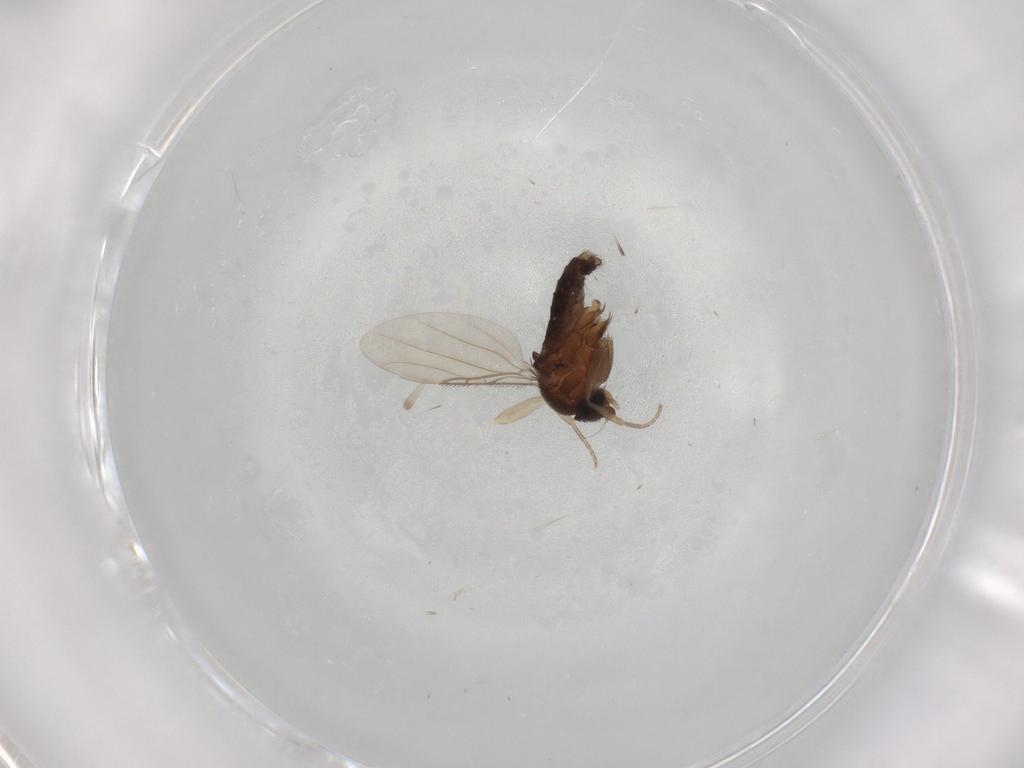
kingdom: Animalia
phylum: Arthropoda
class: Insecta
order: Diptera
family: Phoridae
